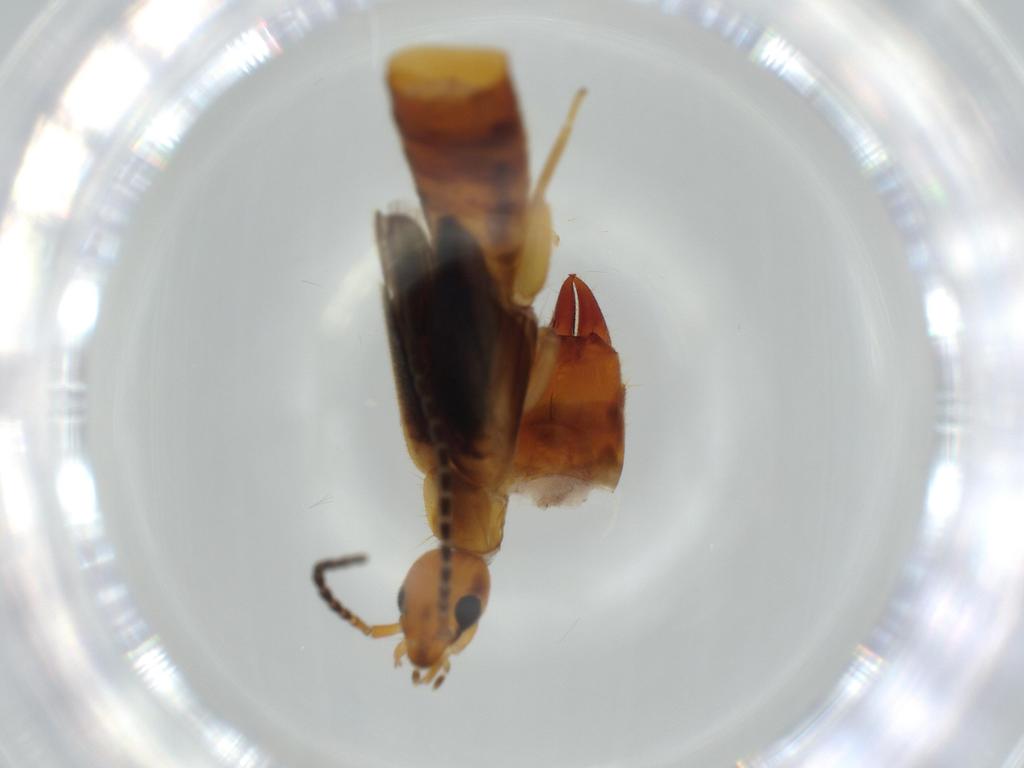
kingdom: Animalia
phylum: Arthropoda
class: Insecta
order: Dermaptera
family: Forficulidae
